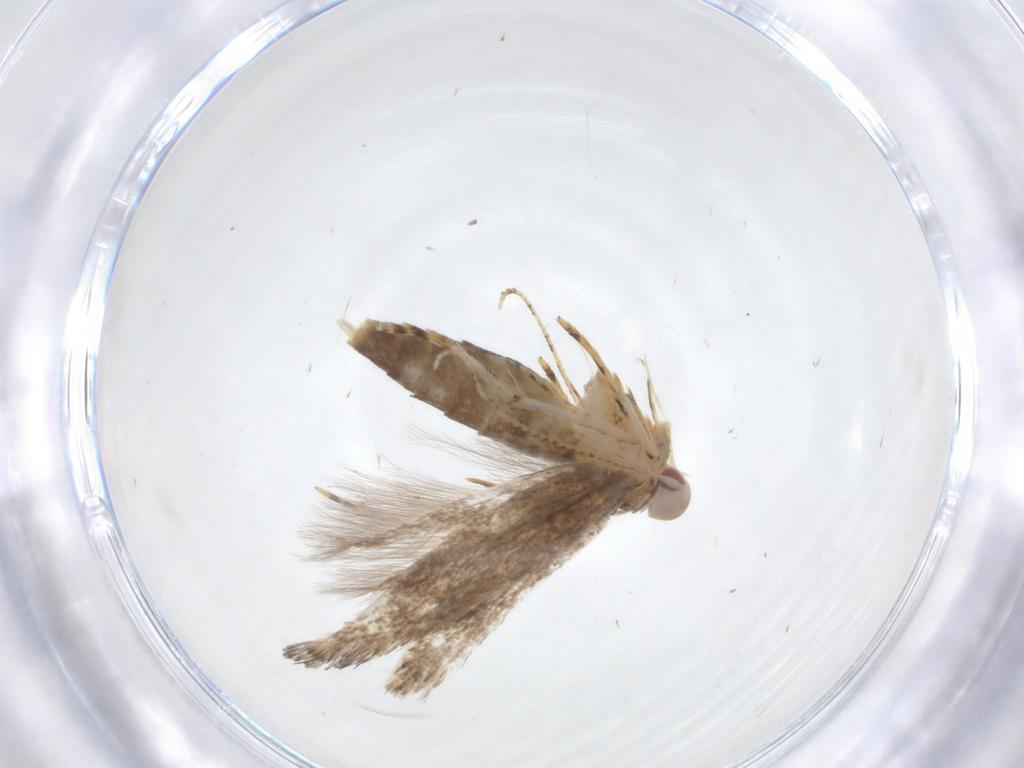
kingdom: Animalia
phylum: Arthropoda
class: Insecta
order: Lepidoptera
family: Cosmopterigidae
